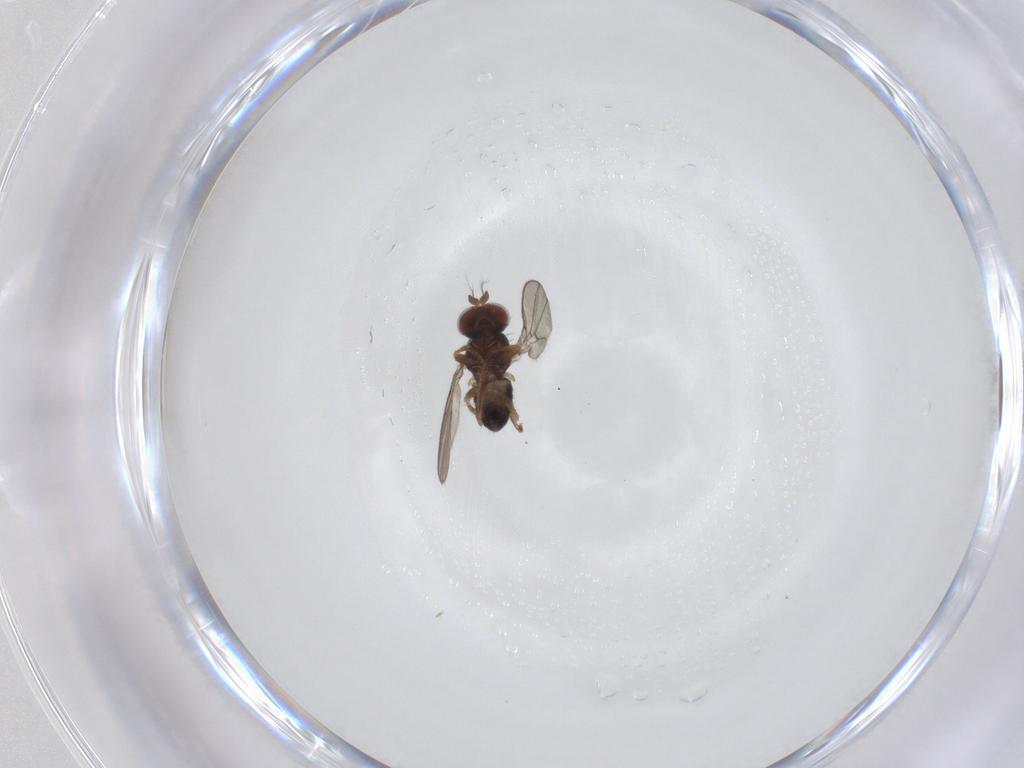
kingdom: Animalia
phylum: Arthropoda
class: Insecta
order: Diptera
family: Ephydridae
